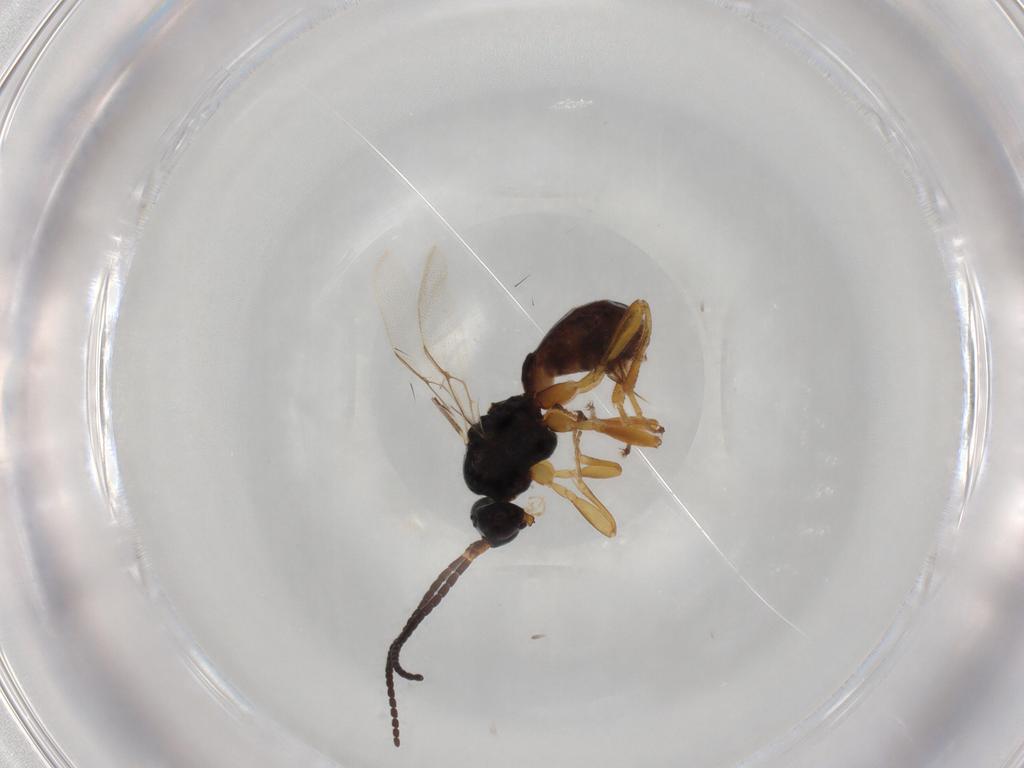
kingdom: Animalia
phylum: Arthropoda
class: Insecta
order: Hymenoptera
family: Braconidae
